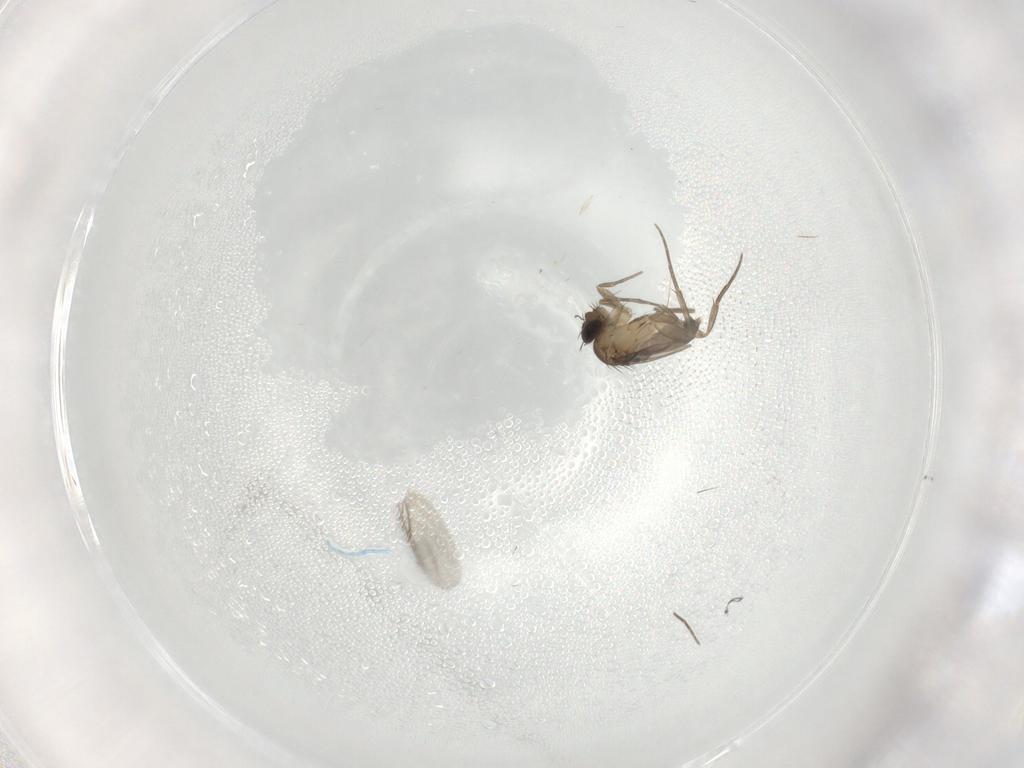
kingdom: Animalia
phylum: Arthropoda
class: Insecta
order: Diptera
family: Phoridae
